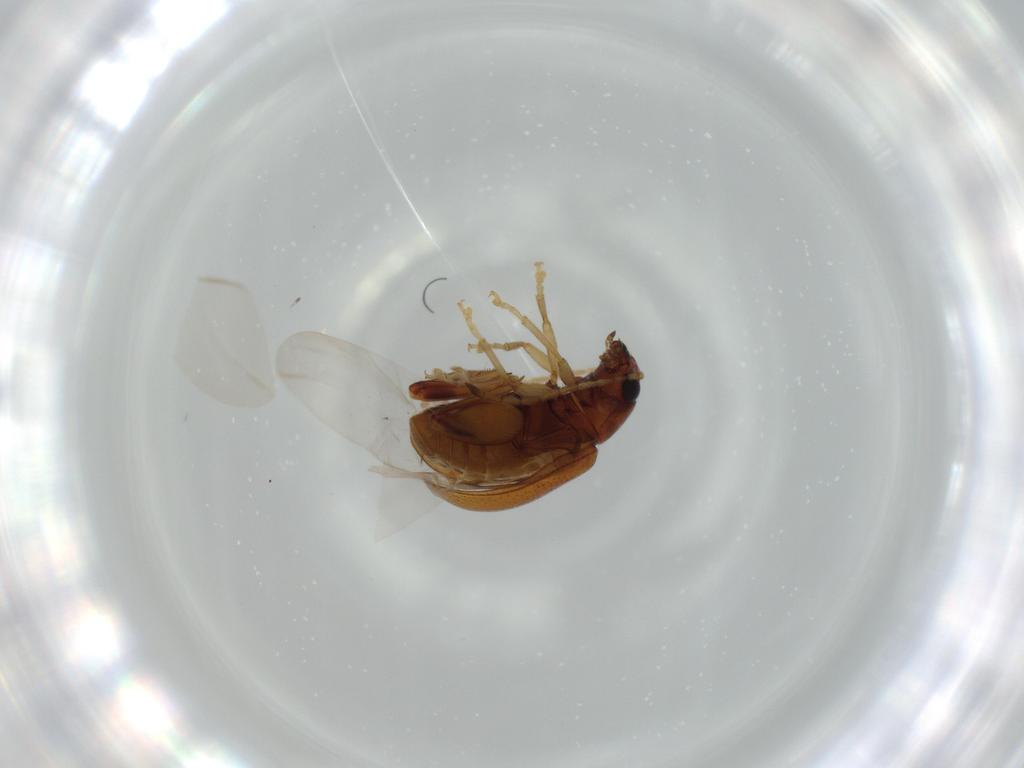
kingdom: Animalia
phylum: Arthropoda
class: Insecta
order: Coleoptera
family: Chrysomelidae
